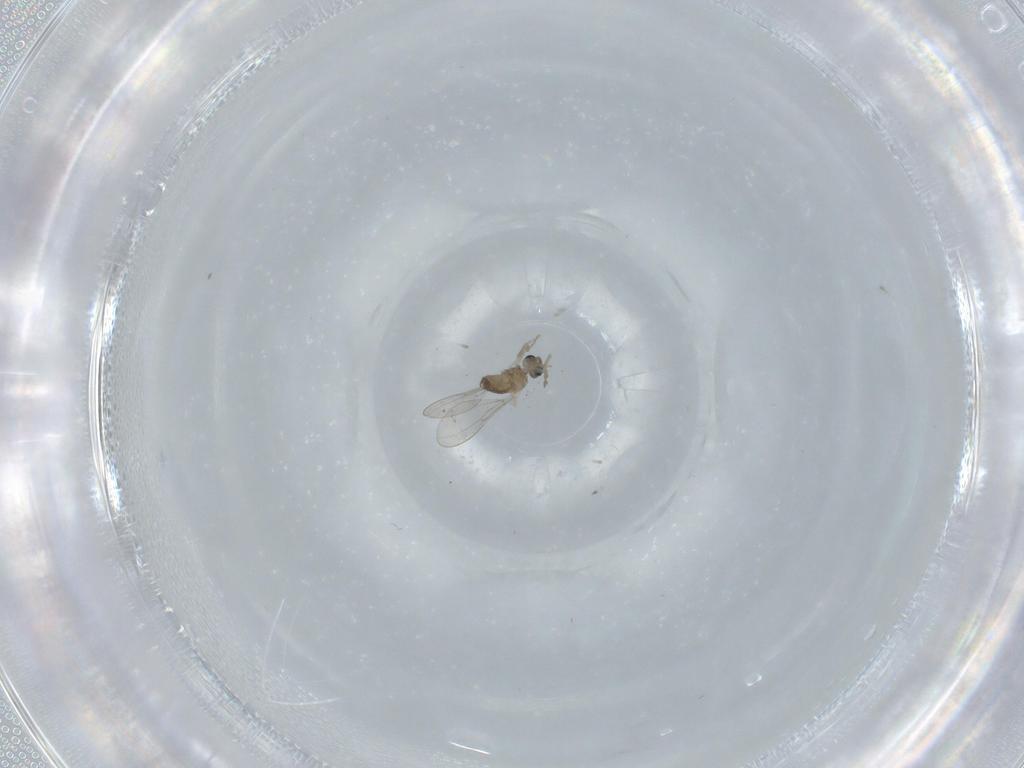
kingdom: Animalia
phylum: Arthropoda
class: Insecta
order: Diptera
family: Cecidomyiidae
